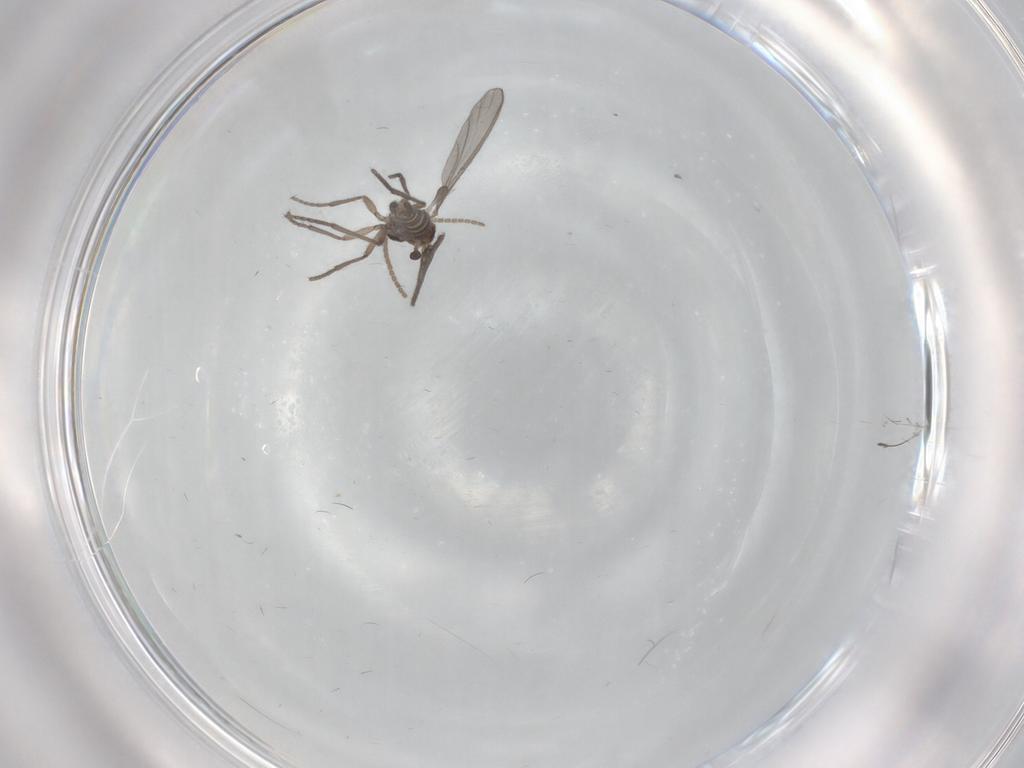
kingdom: Animalia
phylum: Arthropoda
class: Insecta
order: Diptera
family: Sciaridae
